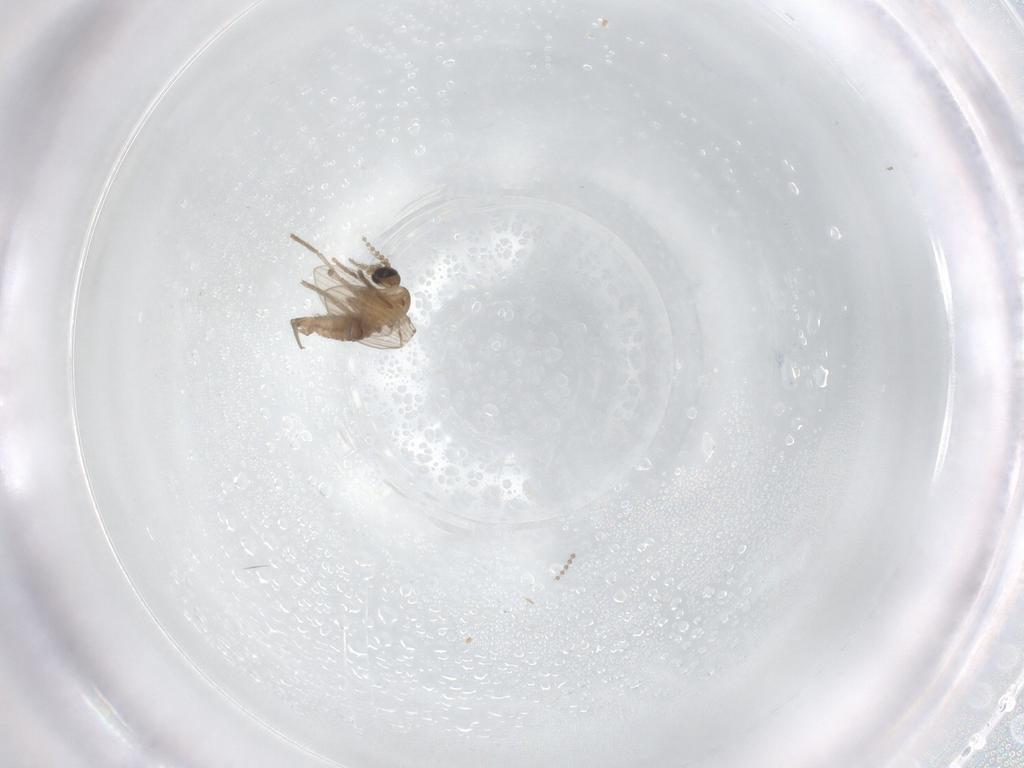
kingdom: Animalia
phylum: Arthropoda
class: Insecta
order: Diptera
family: Psychodidae
